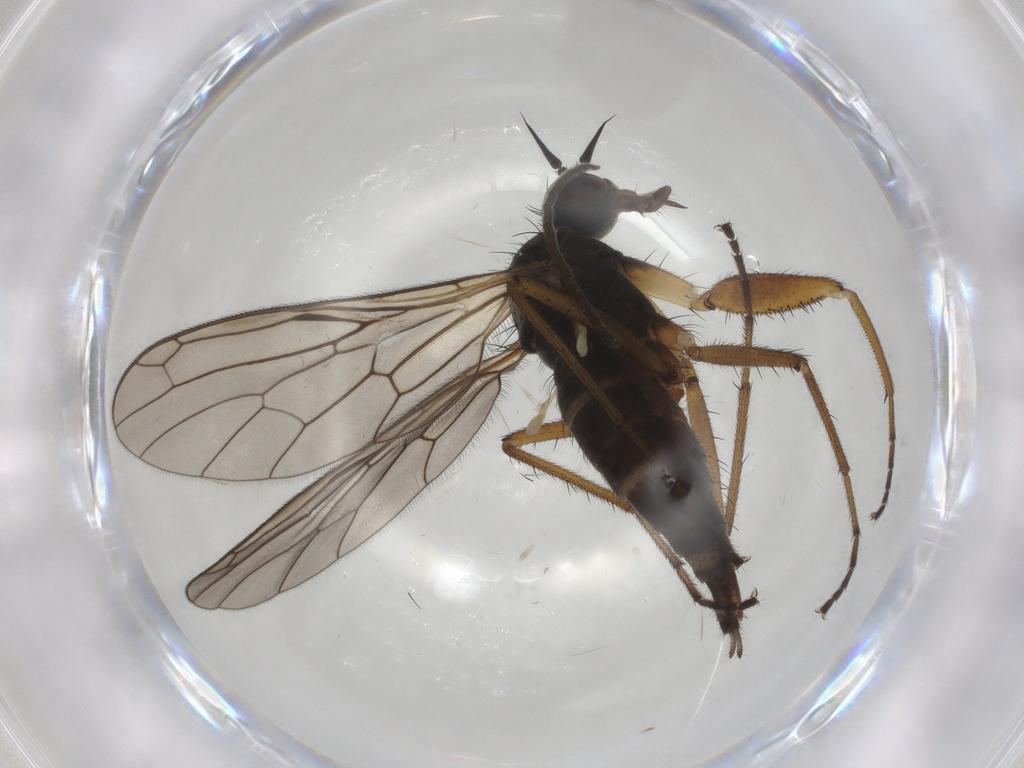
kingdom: Animalia
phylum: Arthropoda
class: Insecta
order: Diptera
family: Chironomidae
